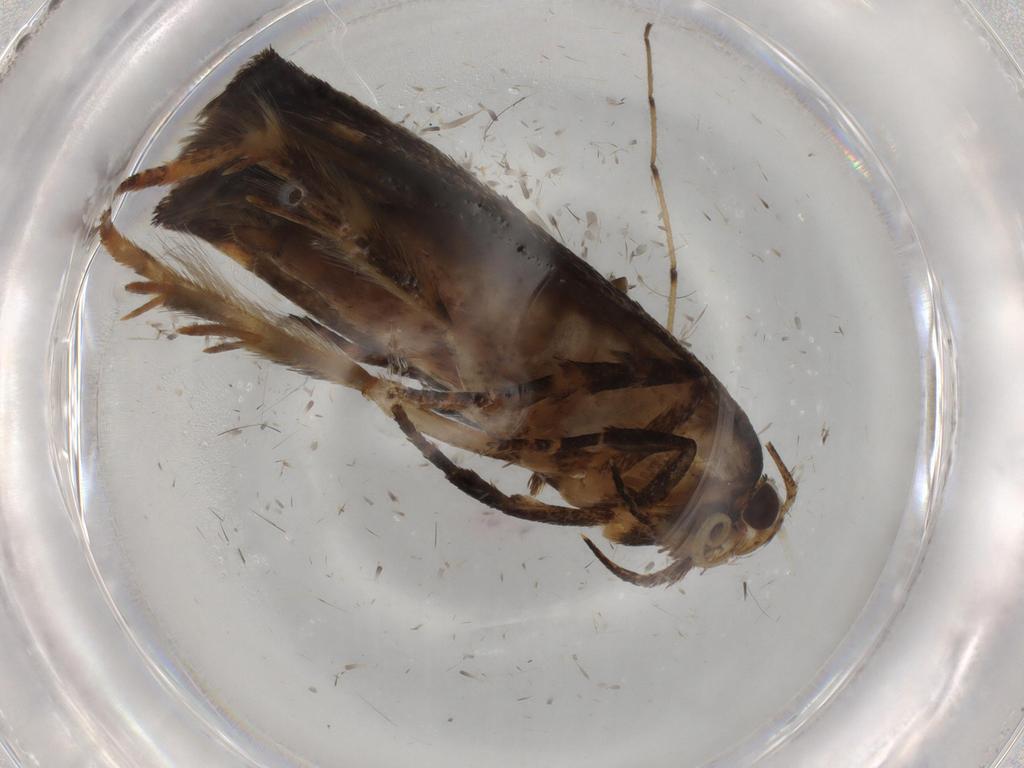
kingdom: Animalia
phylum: Arthropoda
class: Insecta
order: Lepidoptera
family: Gelechiidae
